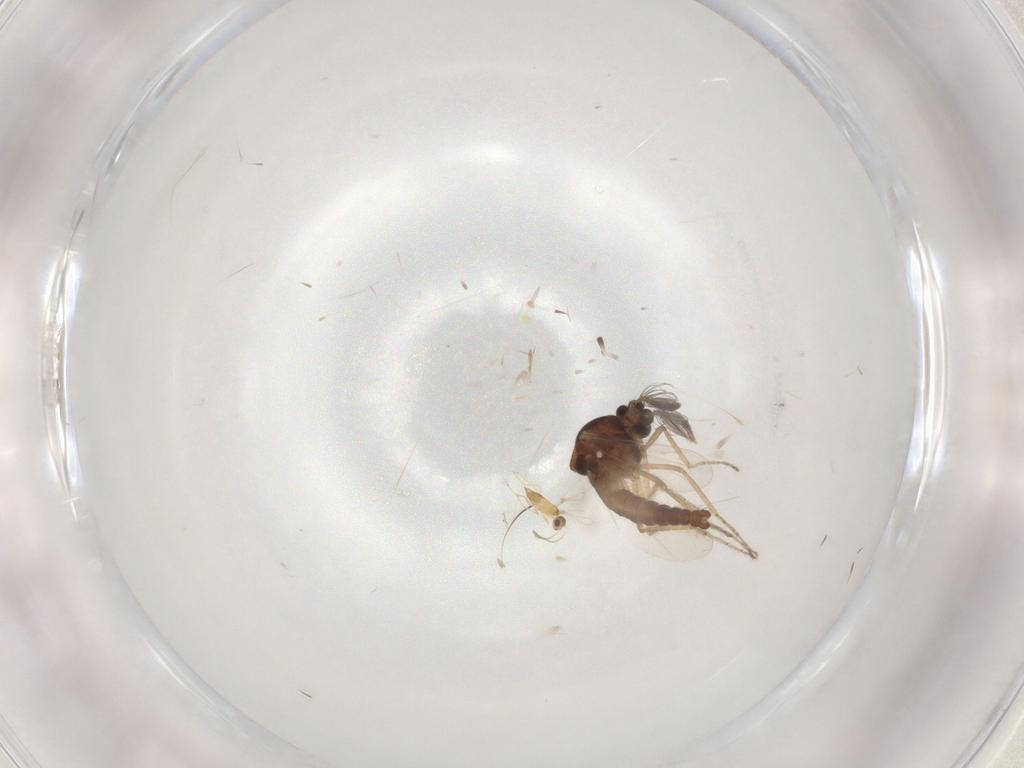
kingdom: Animalia
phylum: Arthropoda
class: Insecta
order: Diptera
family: Ceratopogonidae
